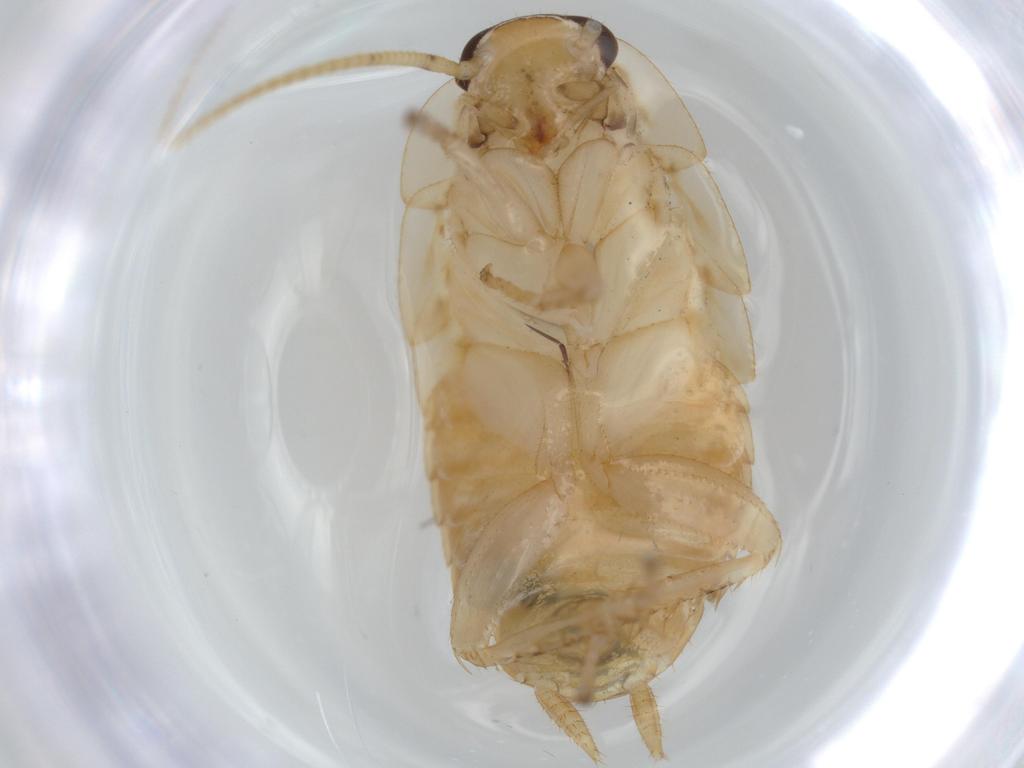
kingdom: Animalia
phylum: Arthropoda
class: Insecta
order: Blattodea
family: Ectobiidae
